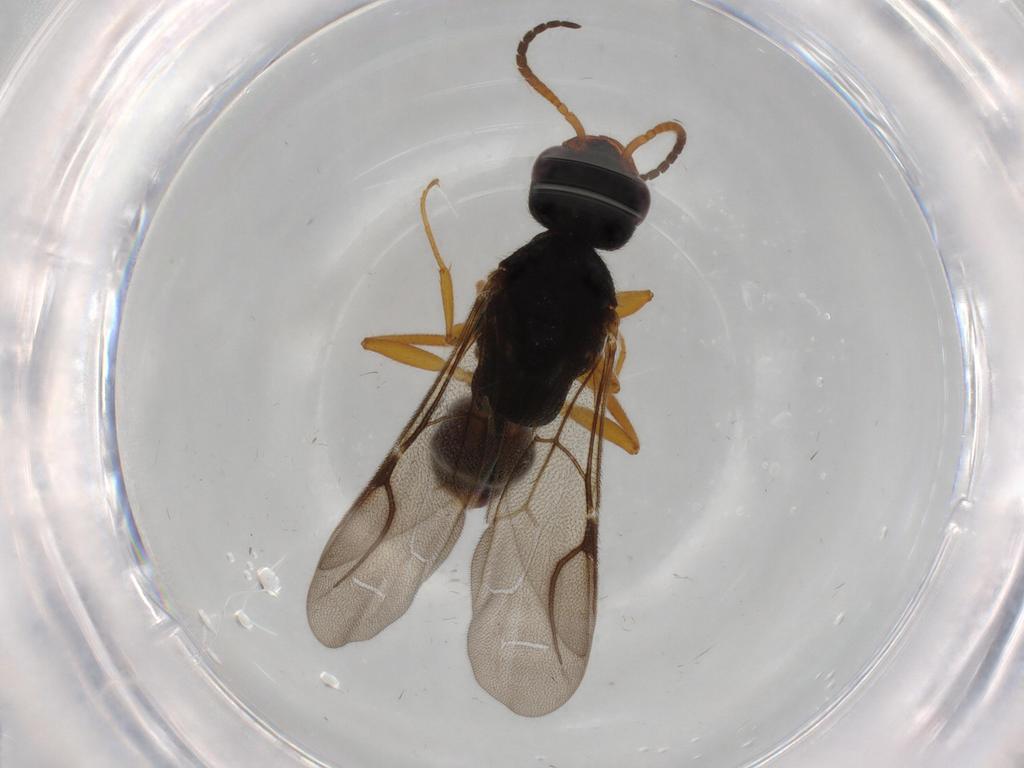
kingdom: Animalia
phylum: Arthropoda
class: Insecta
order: Hymenoptera
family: Bethylidae
